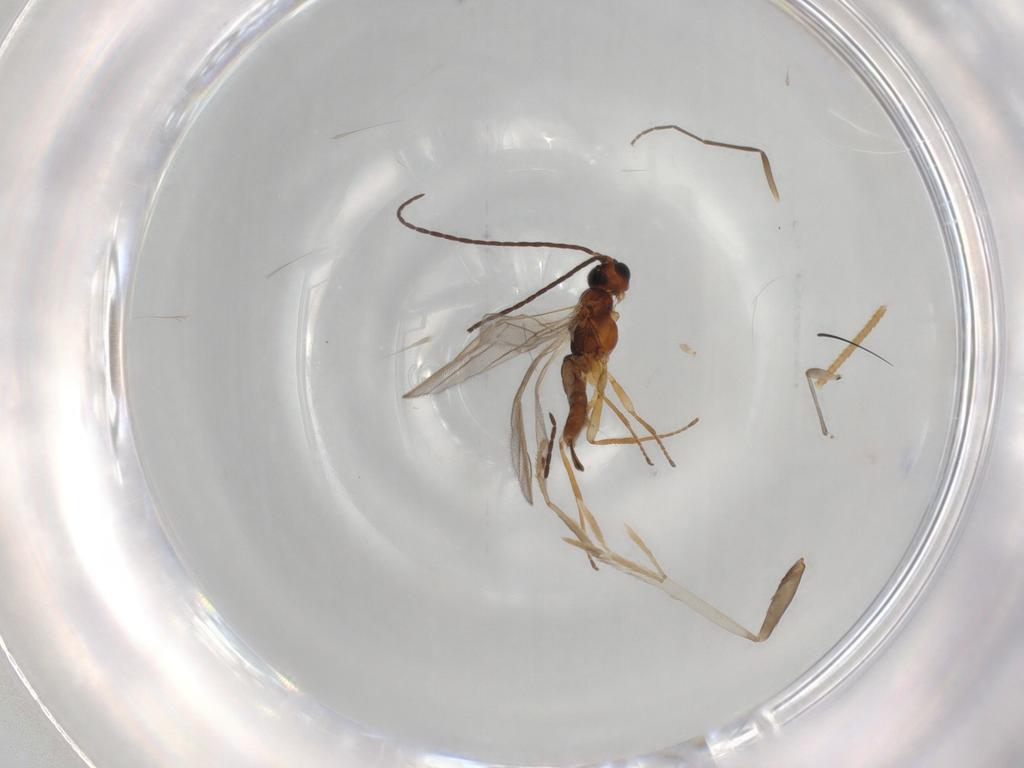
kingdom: Animalia
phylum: Arthropoda
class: Insecta
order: Hymenoptera
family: Braconidae
